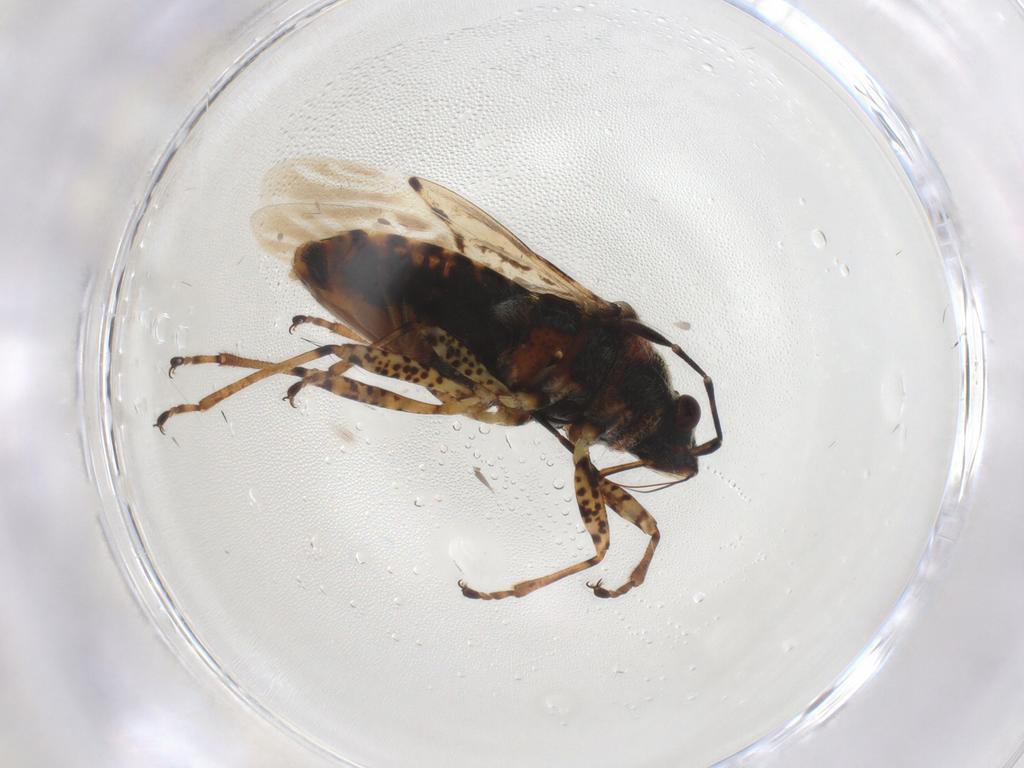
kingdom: Animalia
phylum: Arthropoda
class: Insecta
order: Hemiptera
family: Lygaeidae
